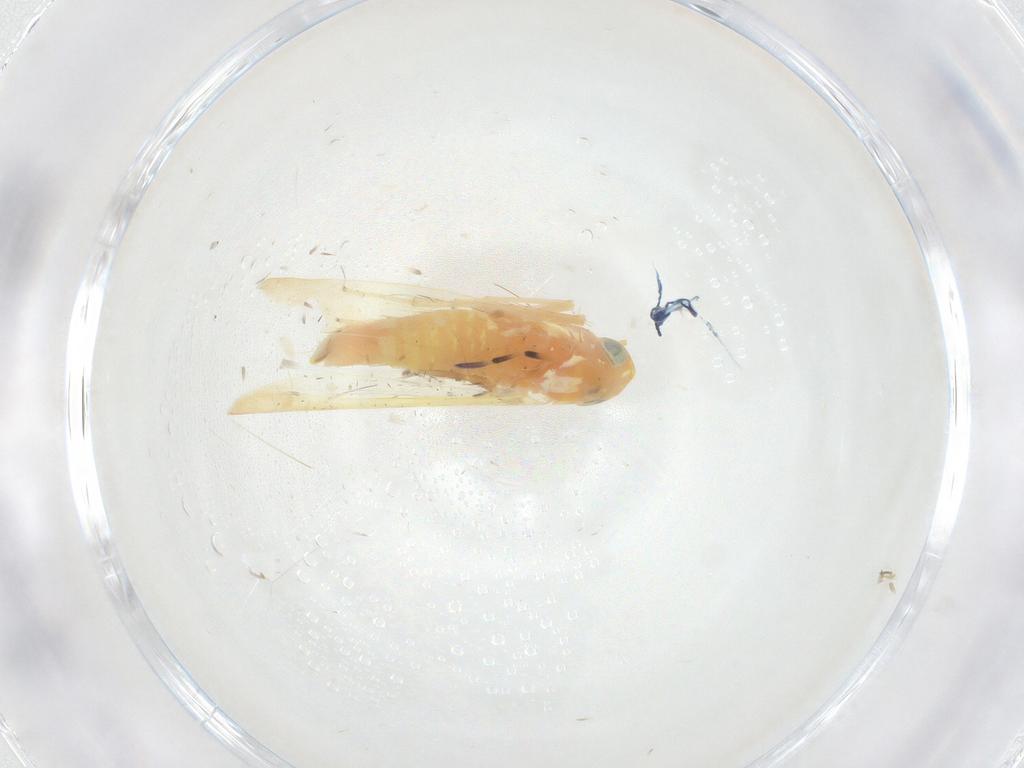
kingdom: Animalia
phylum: Arthropoda
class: Insecta
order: Hemiptera
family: Cicadellidae
